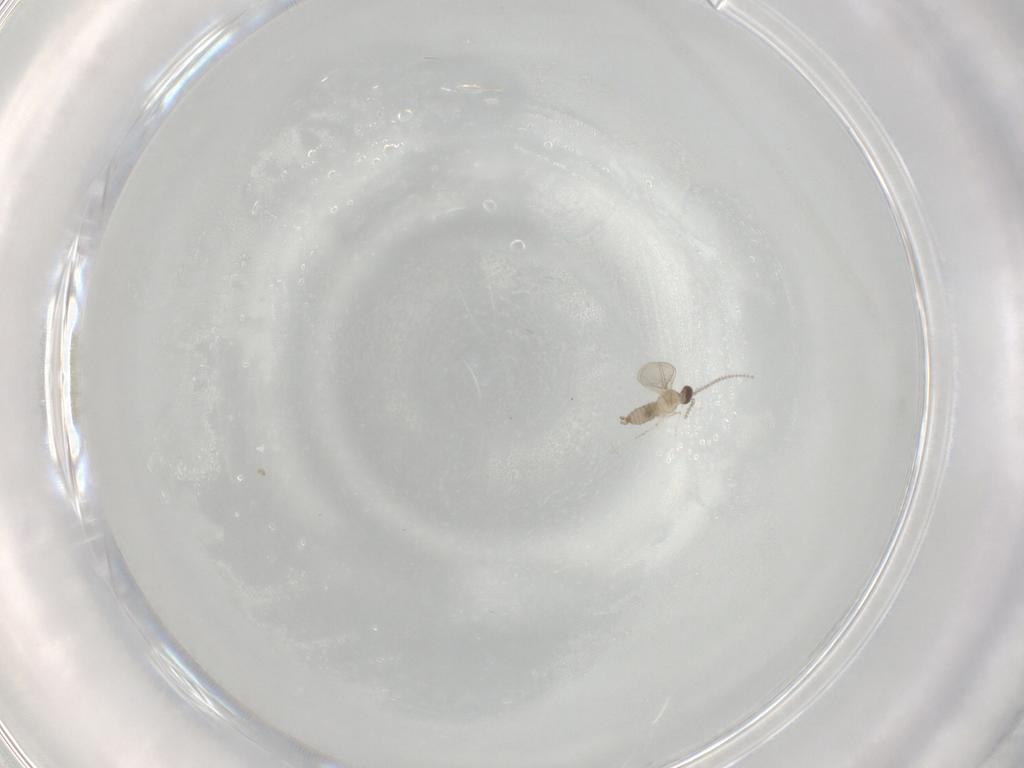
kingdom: Animalia
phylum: Arthropoda
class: Insecta
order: Diptera
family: Cecidomyiidae
